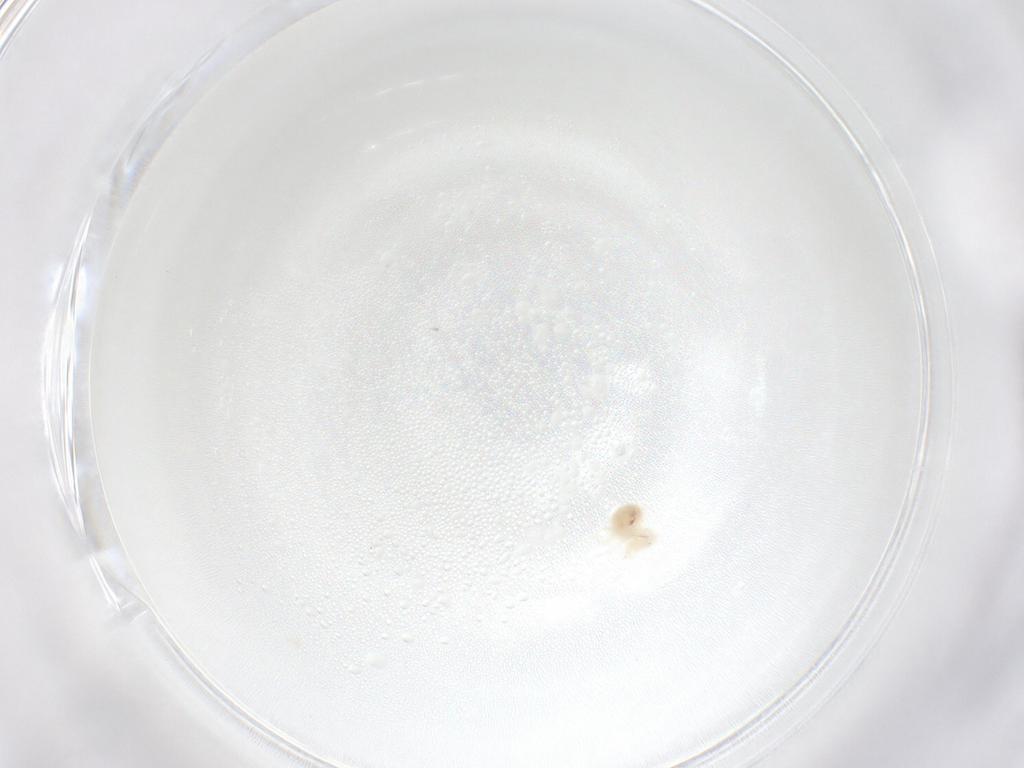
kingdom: Animalia
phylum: Arthropoda
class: Arachnida
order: Trombidiformes
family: Anystidae
